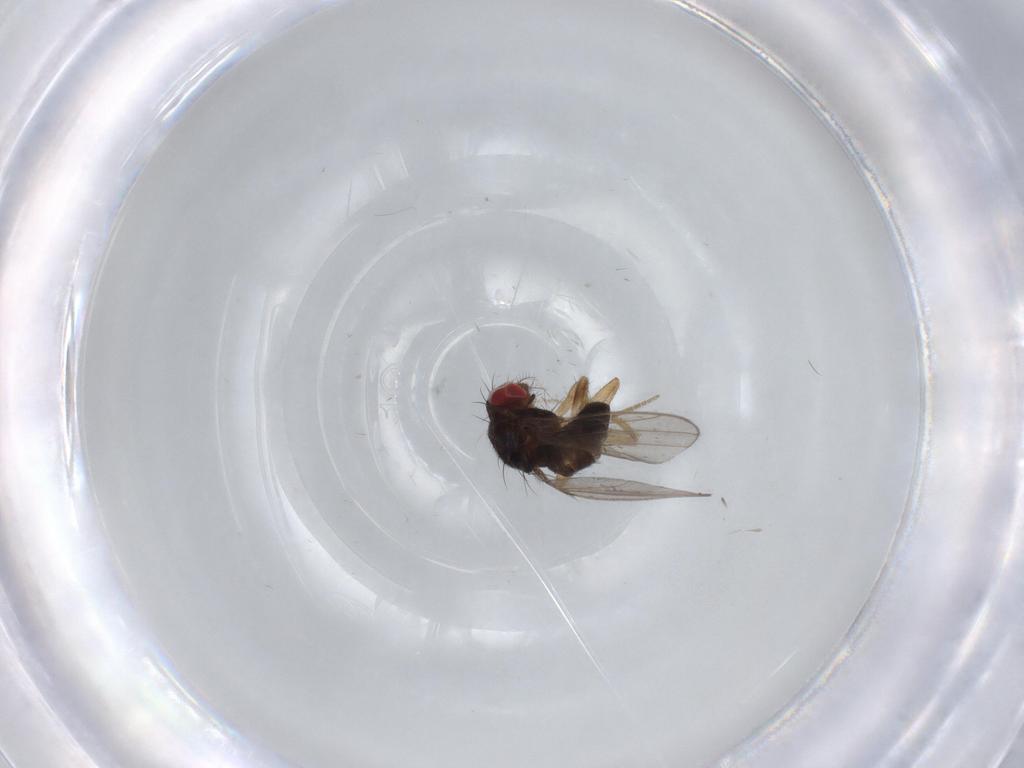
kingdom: Animalia
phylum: Arthropoda
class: Insecta
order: Diptera
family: Drosophilidae
